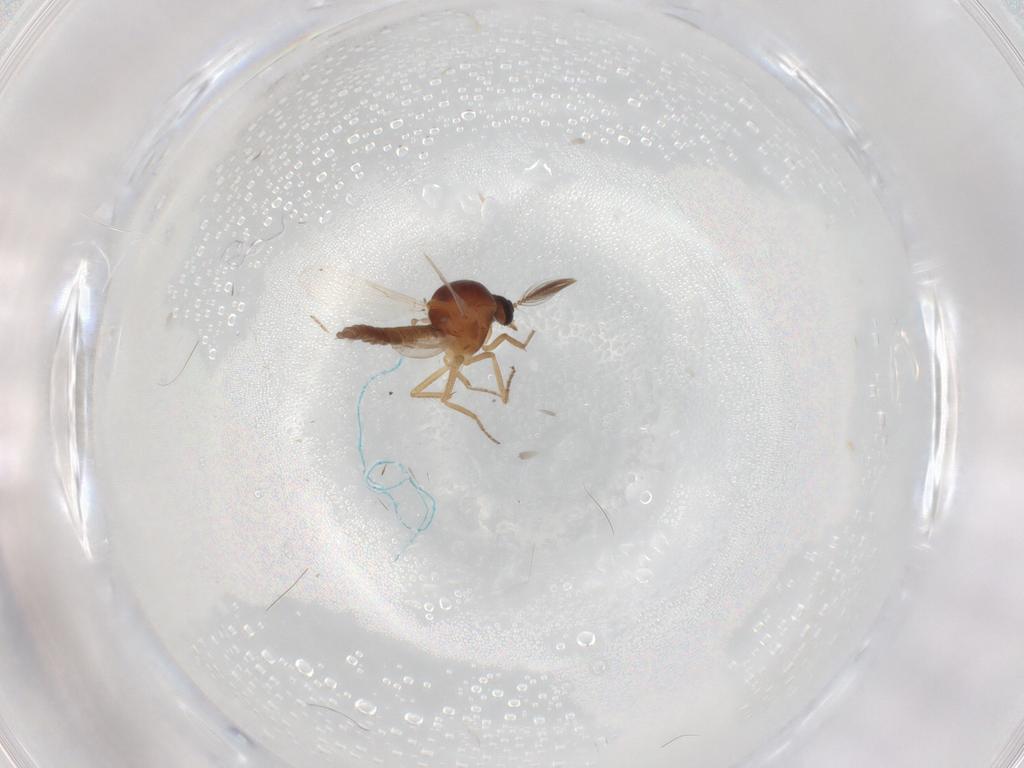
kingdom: Animalia
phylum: Arthropoda
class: Insecta
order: Diptera
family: Ceratopogonidae
